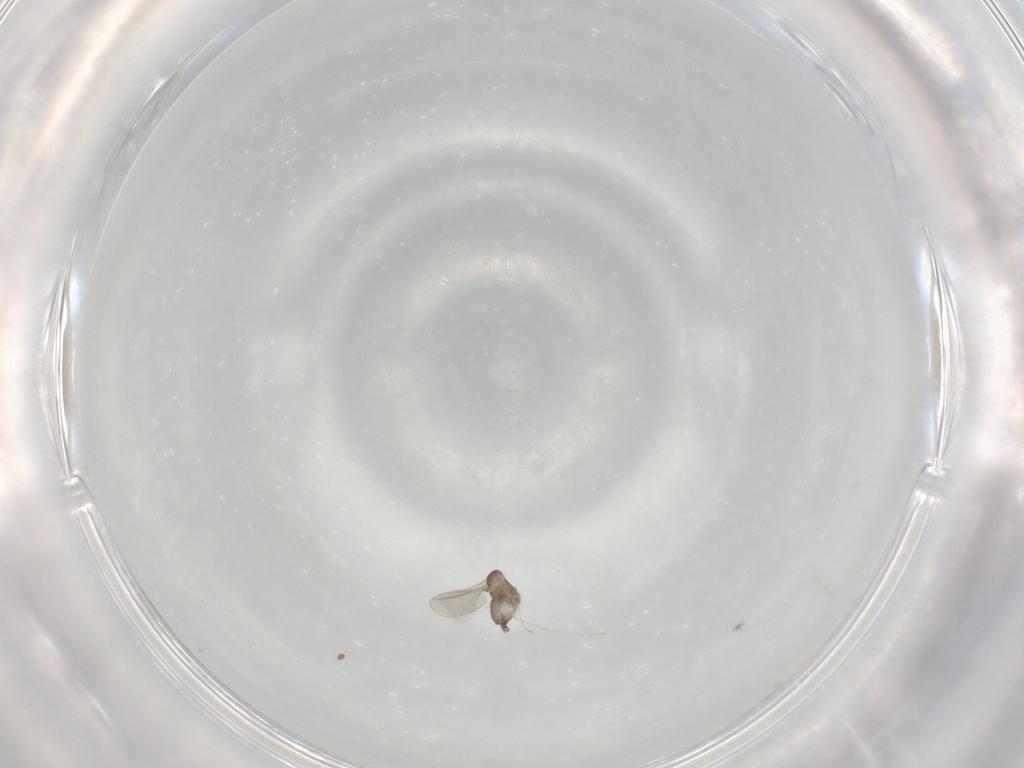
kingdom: Animalia
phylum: Arthropoda
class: Insecta
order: Diptera
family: Cecidomyiidae
